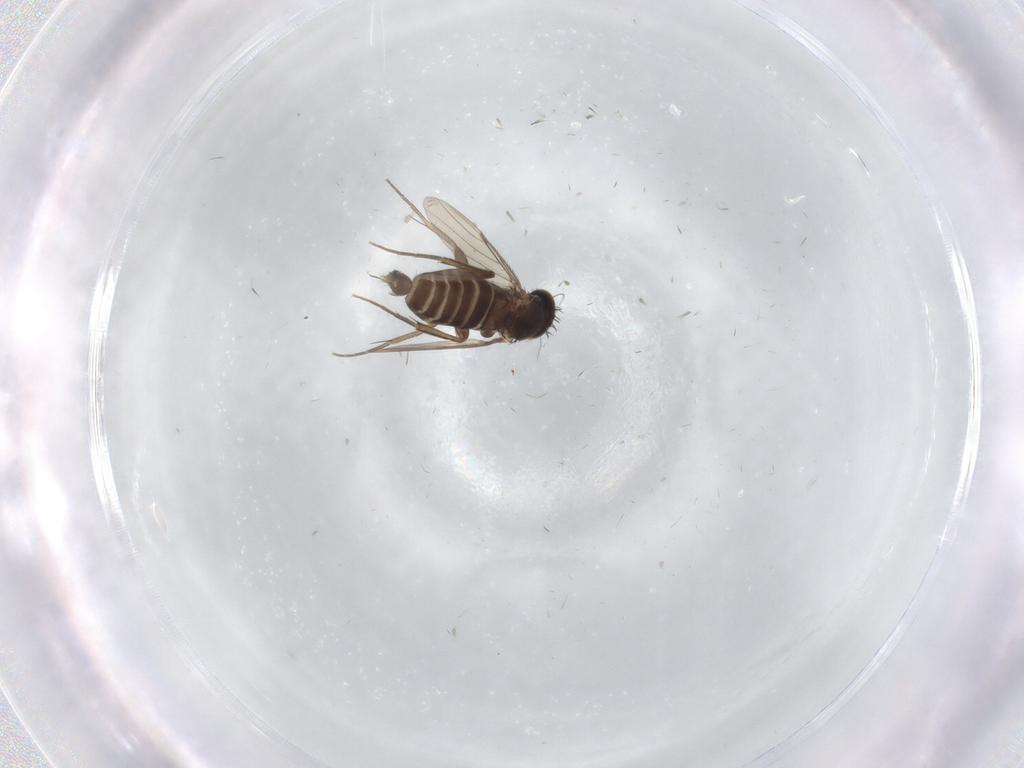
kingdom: Animalia
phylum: Arthropoda
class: Insecta
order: Diptera
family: Phoridae
